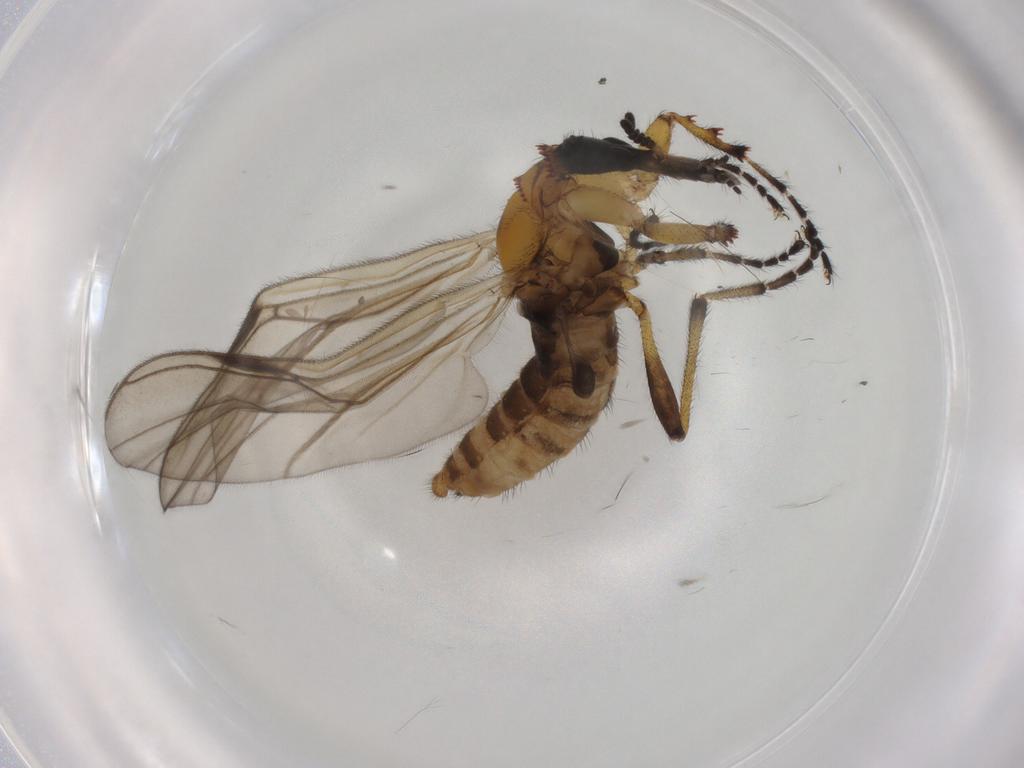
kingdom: Animalia
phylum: Arthropoda
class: Insecta
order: Diptera
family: Bibionidae
